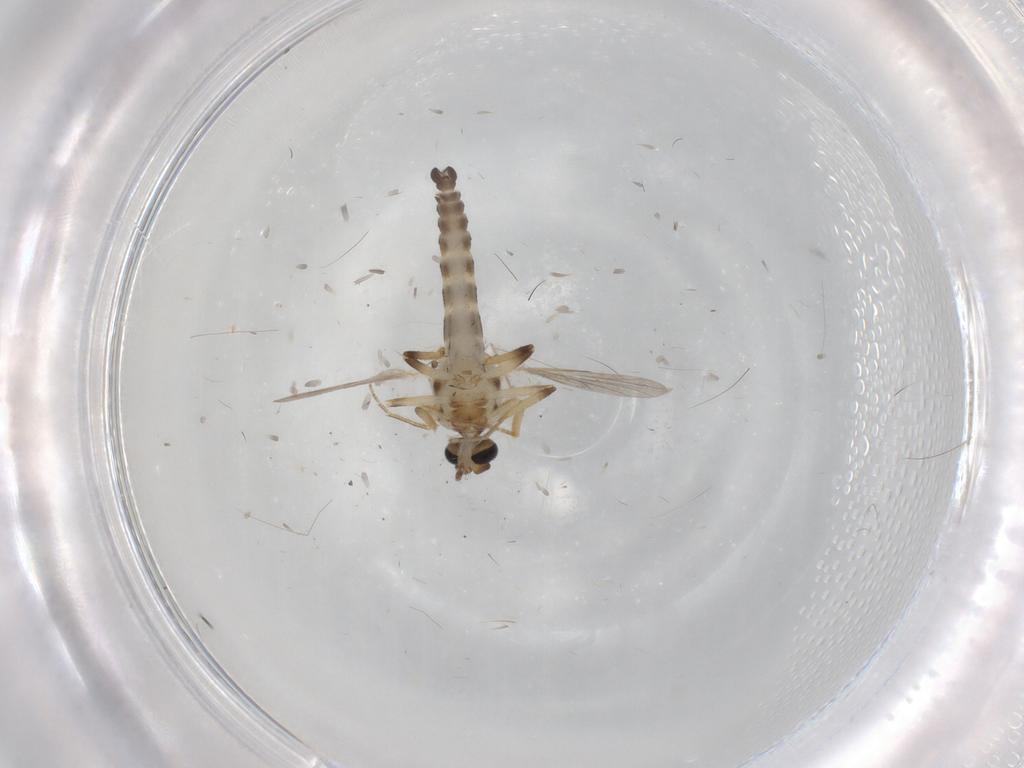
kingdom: Animalia
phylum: Arthropoda
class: Insecta
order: Diptera
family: Ceratopogonidae
